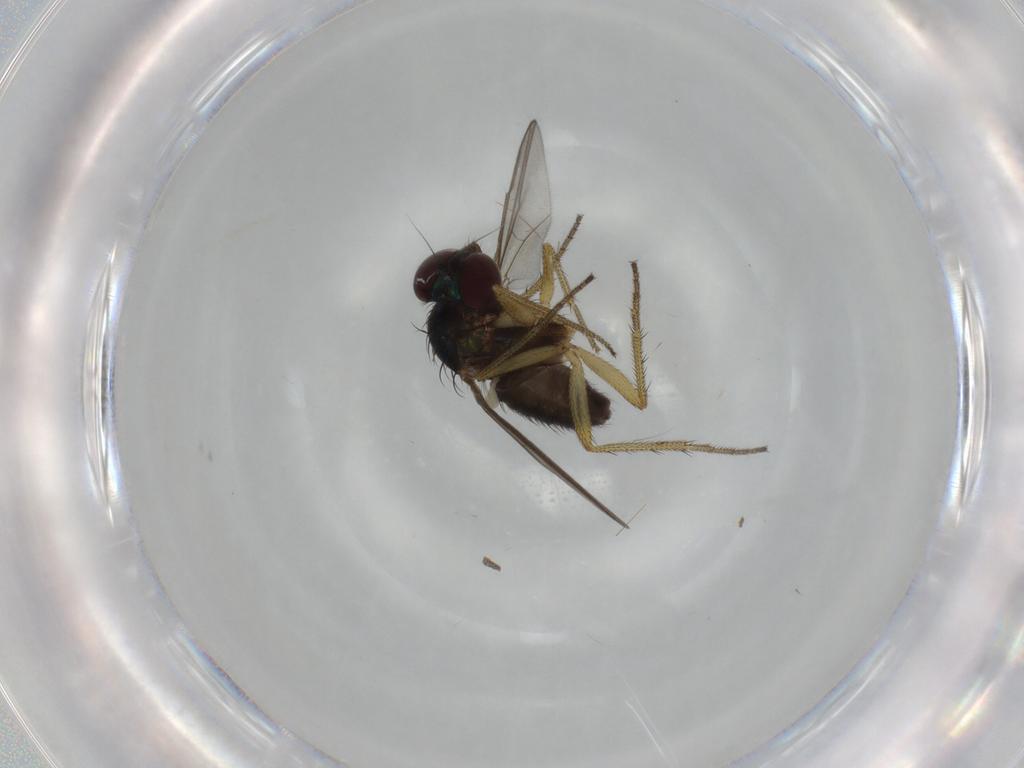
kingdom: Animalia
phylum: Arthropoda
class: Insecta
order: Diptera
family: Dolichopodidae
